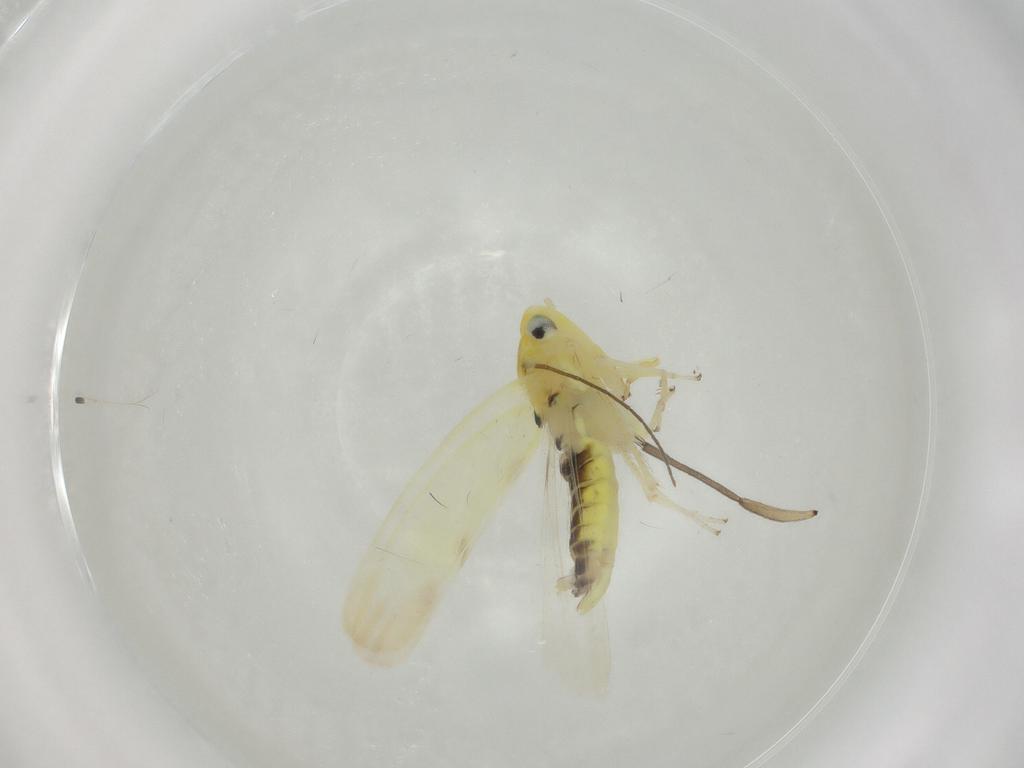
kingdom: Animalia
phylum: Arthropoda
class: Insecta
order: Hemiptera
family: Cicadellidae
